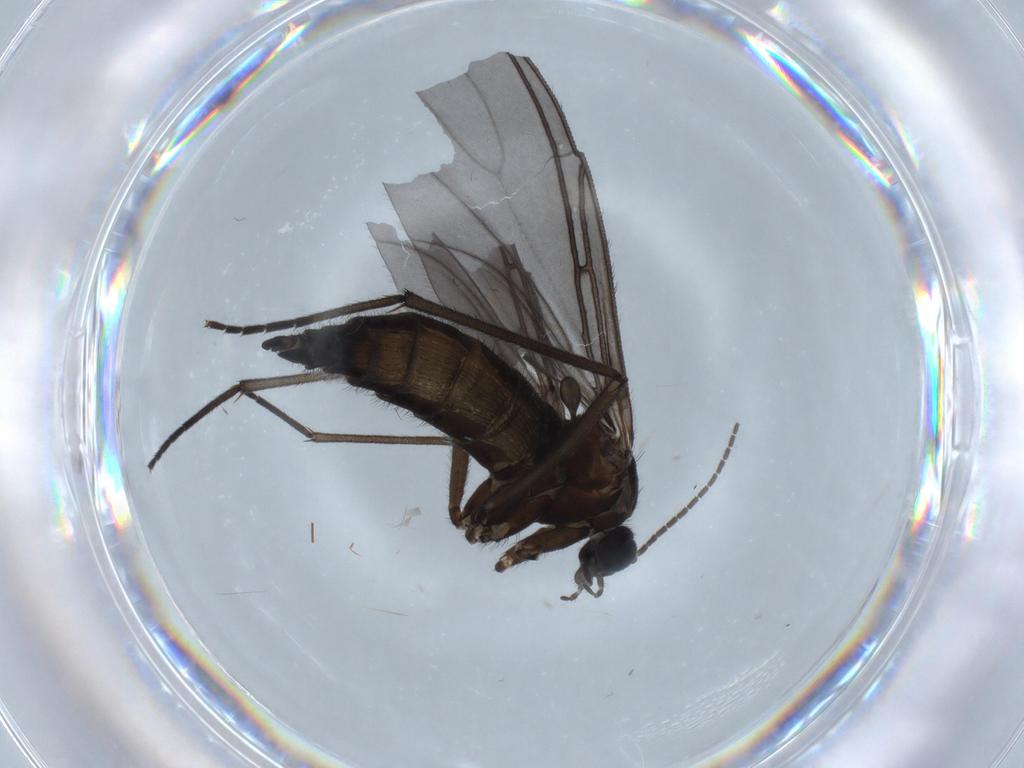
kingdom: Animalia
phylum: Arthropoda
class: Insecta
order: Diptera
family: Sciaridae
